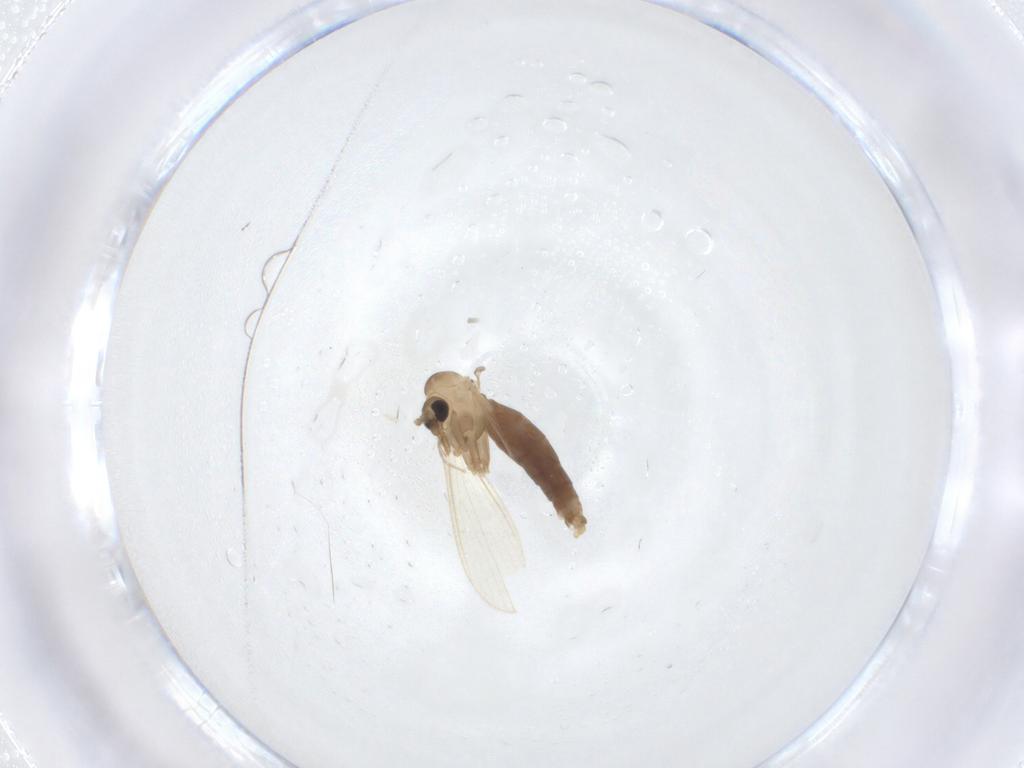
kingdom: Animalia
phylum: Arthropoda
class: Insecta
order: Diptera
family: Psychodidae
